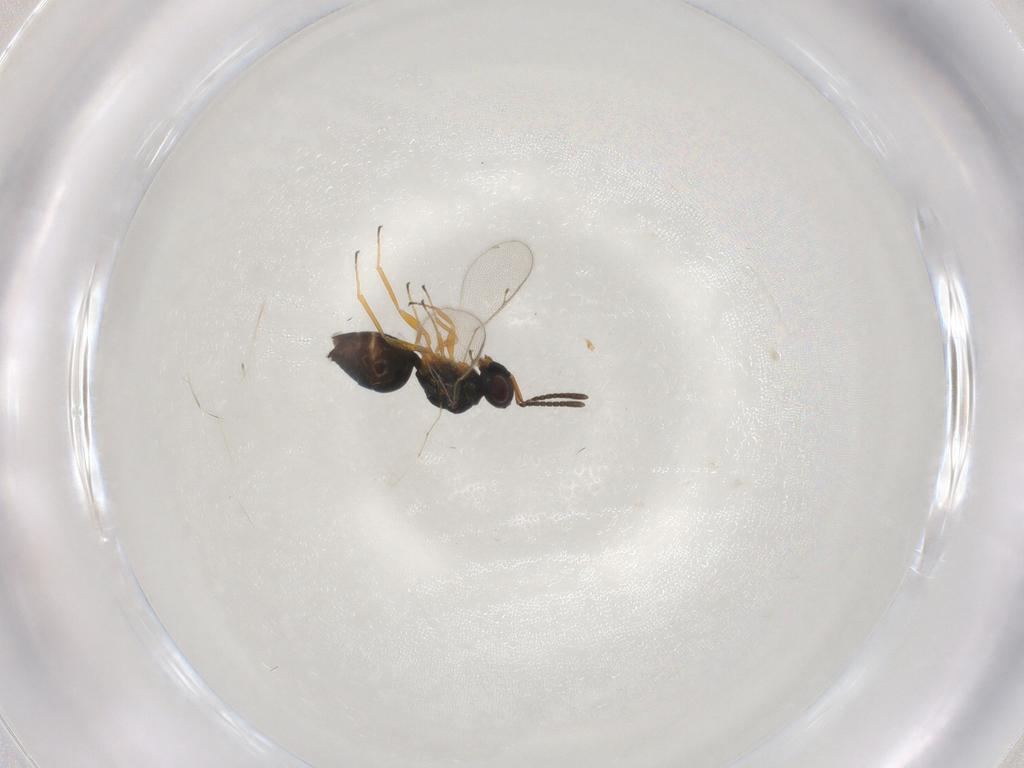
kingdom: Animalia
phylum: Arthropoda
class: Insecta
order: Hymenoptera
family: Pteromalidae
